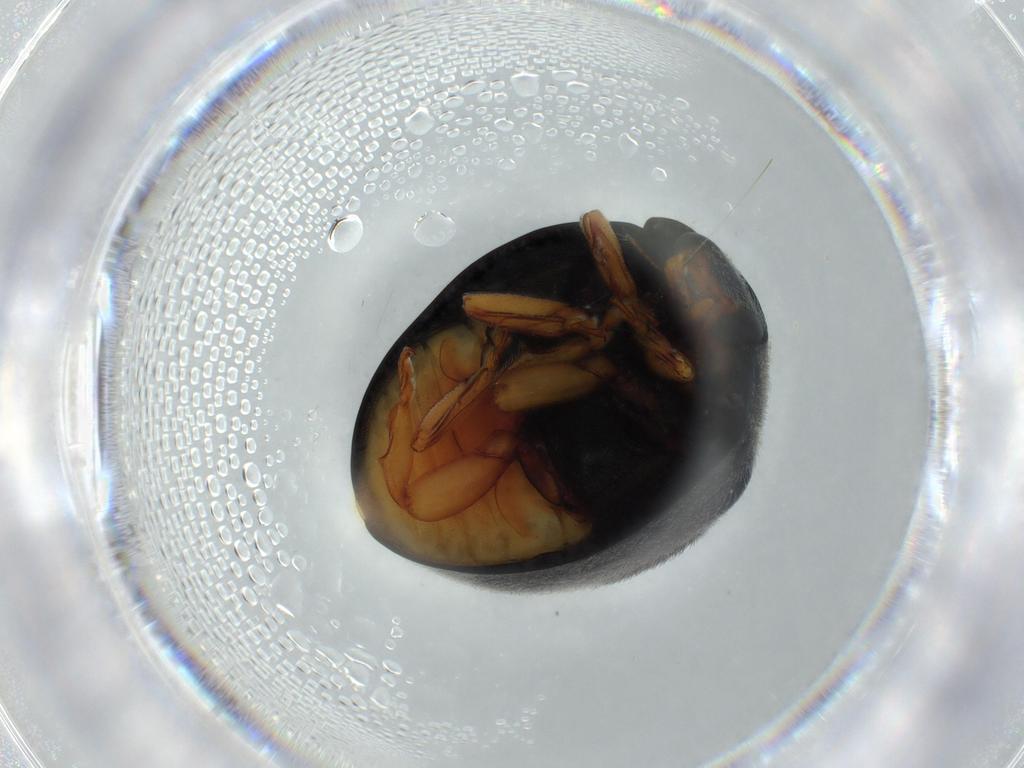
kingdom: Animalia
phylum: Arthropoda
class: Insecta
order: Coleoptera
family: Coccinellidae
